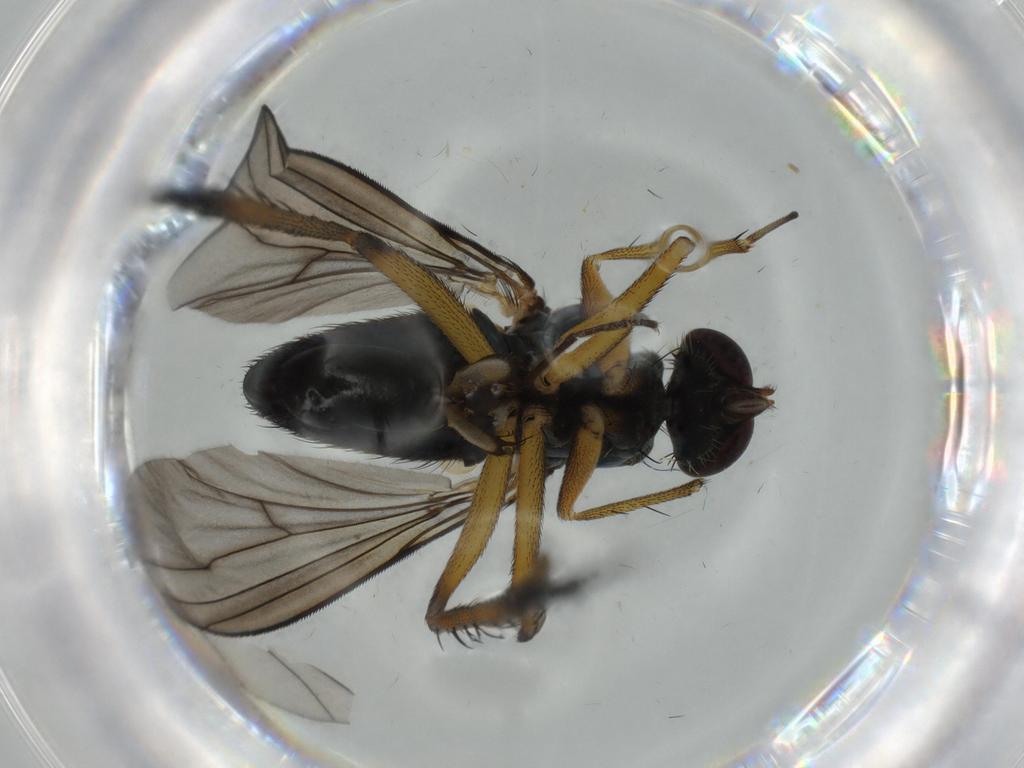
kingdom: Animalia
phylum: Arthropoda
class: Insecta
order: Diptera
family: Chironomidae
